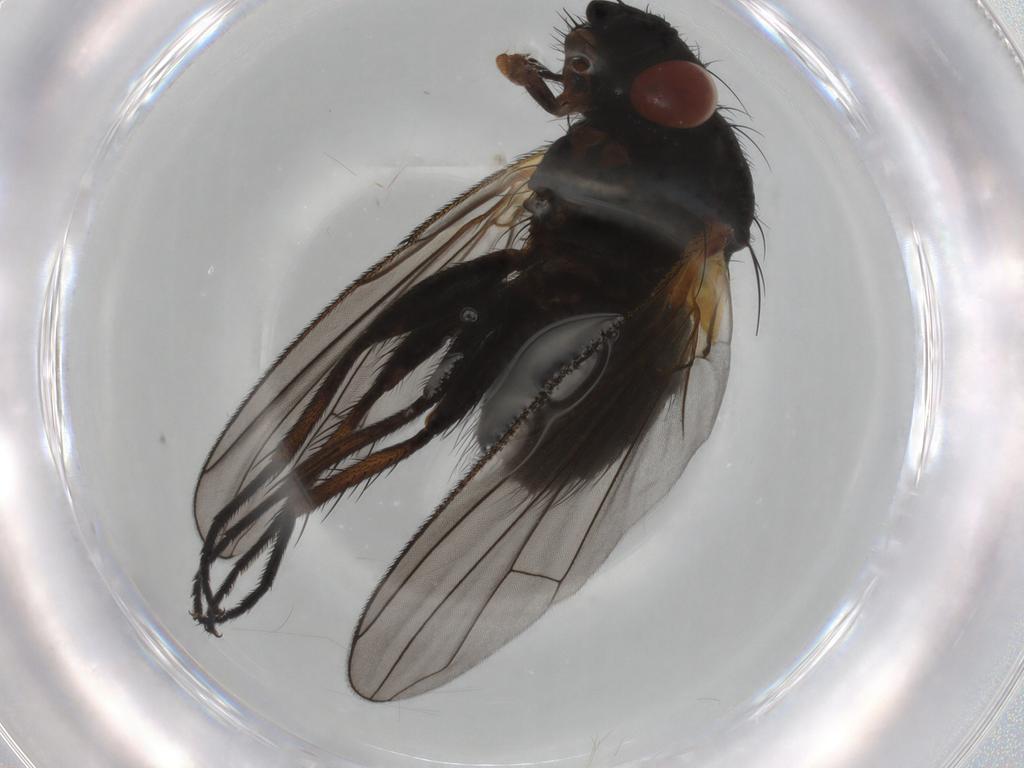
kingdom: Animalia
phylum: Arthropoda
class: Insecta
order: Diptera
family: Tachinidae
